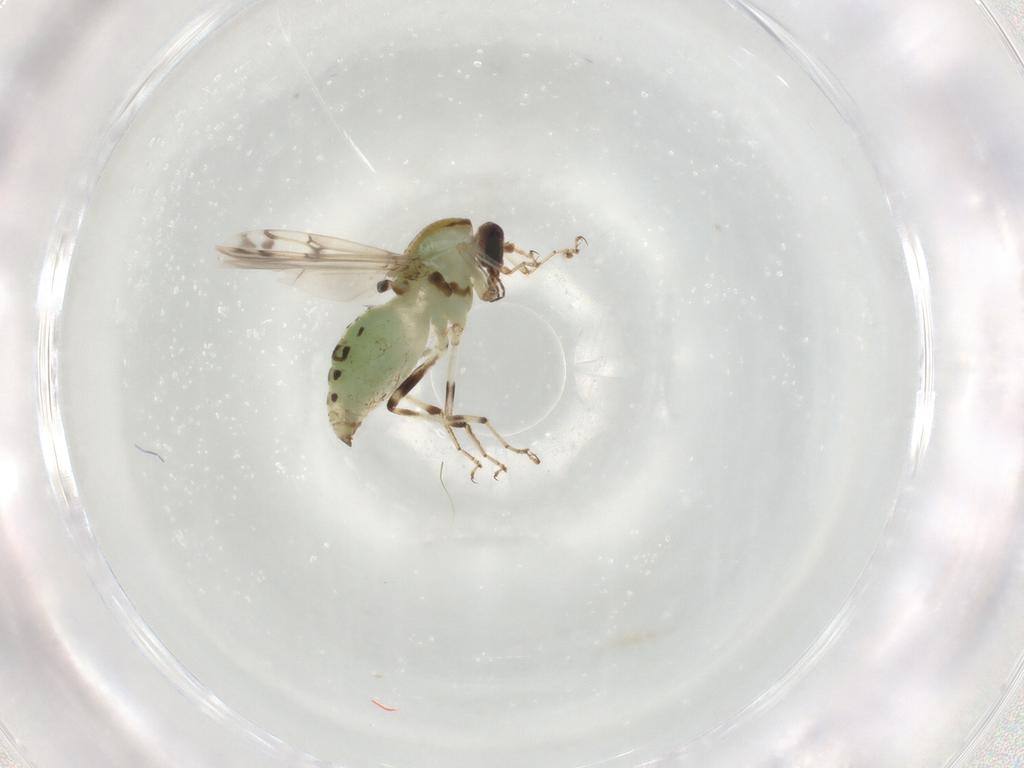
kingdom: Animalia
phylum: Arthropoda
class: Insecta
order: Diptera
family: Ceratopogonidae
